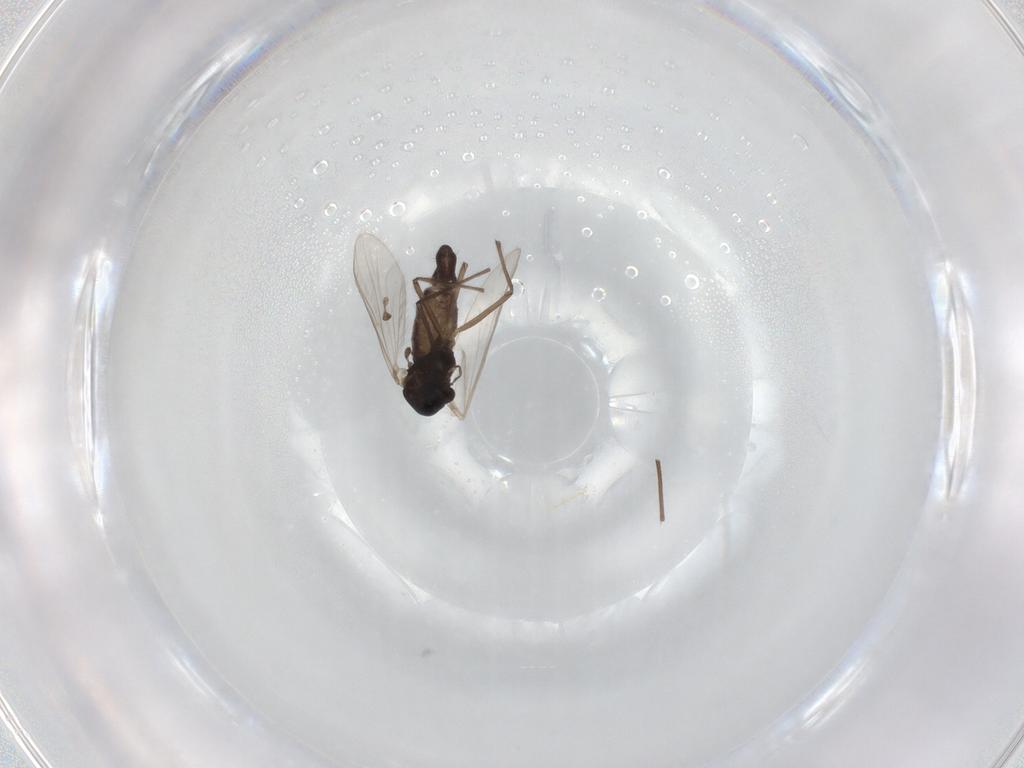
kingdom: Animalia
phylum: Arthropoda
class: Insecta
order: Diptera
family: Chironomidae
